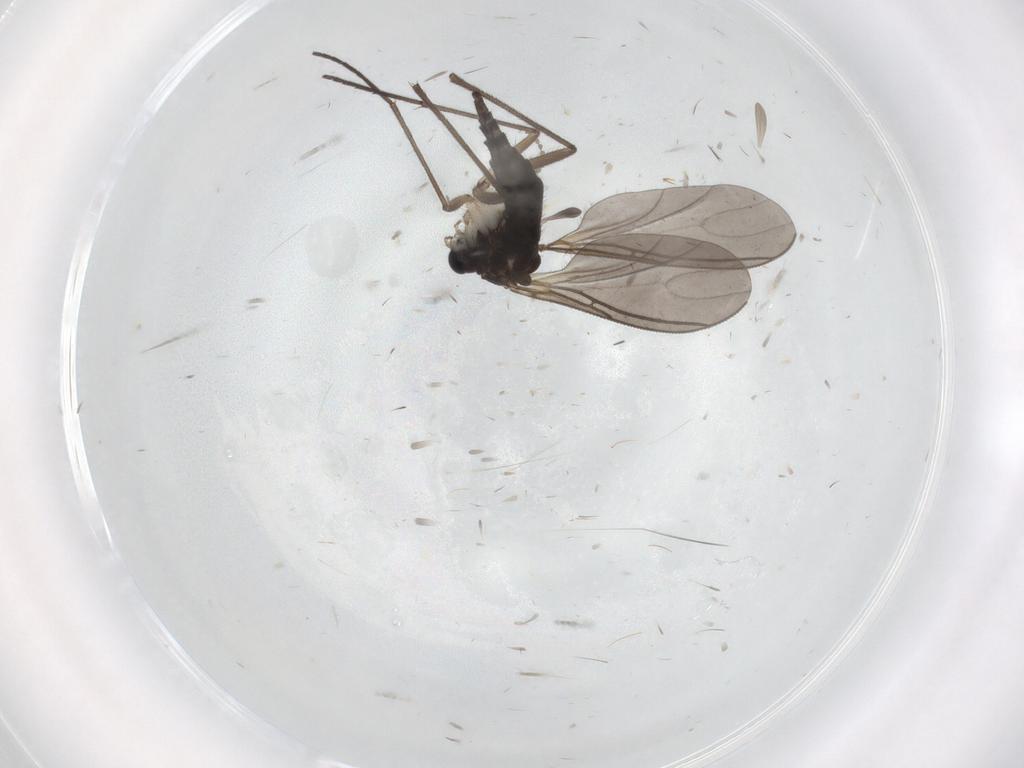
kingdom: Animalia
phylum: Arthropoda
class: Insecta
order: Diptera
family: Sciaridae
